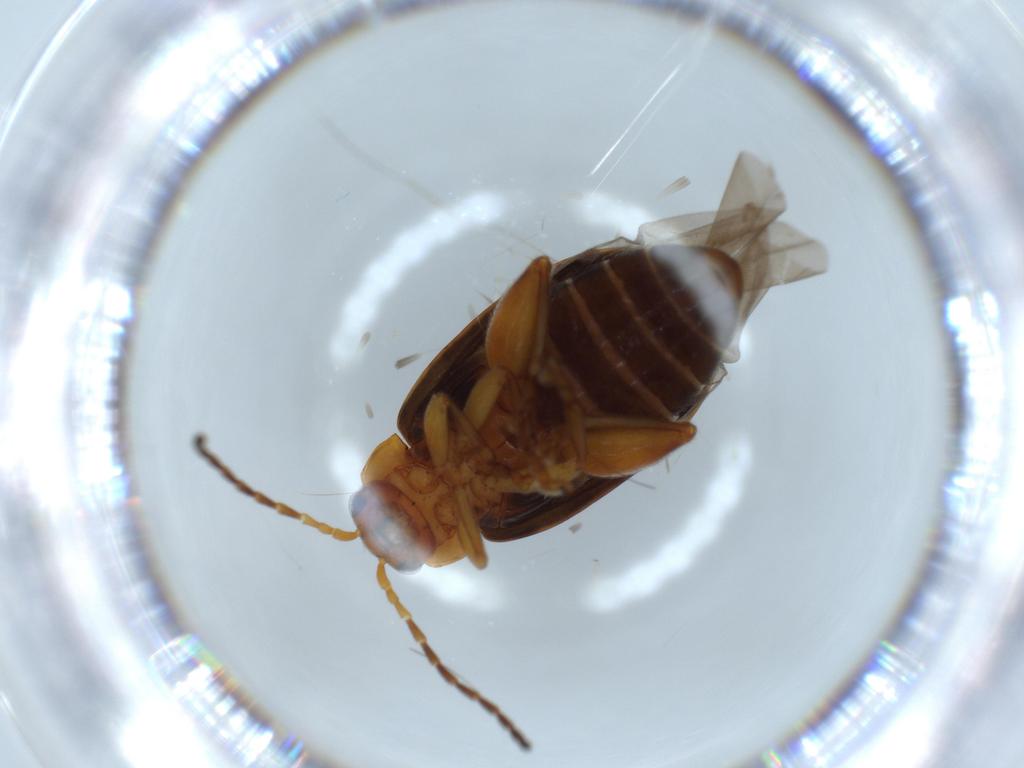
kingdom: Animalia
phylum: Arthropoda
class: Insecta
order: Coleoptera
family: Chrysomelidae
